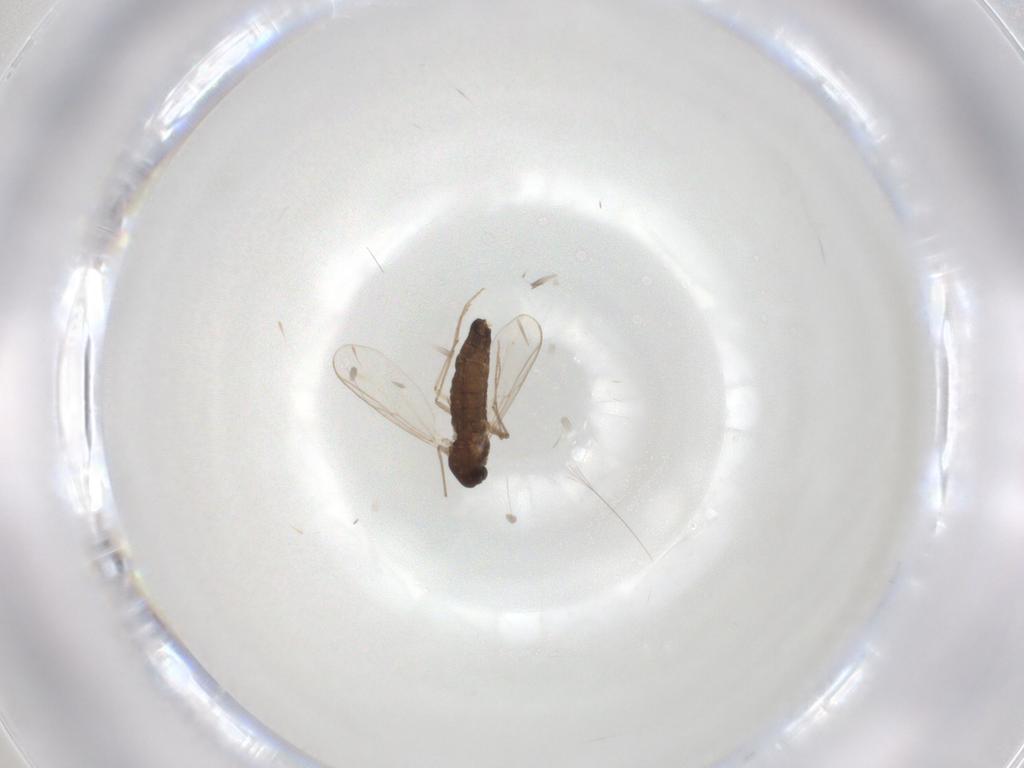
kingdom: Animalia
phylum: Arthropoda
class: Insecta
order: Diptera
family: Chironomidae
